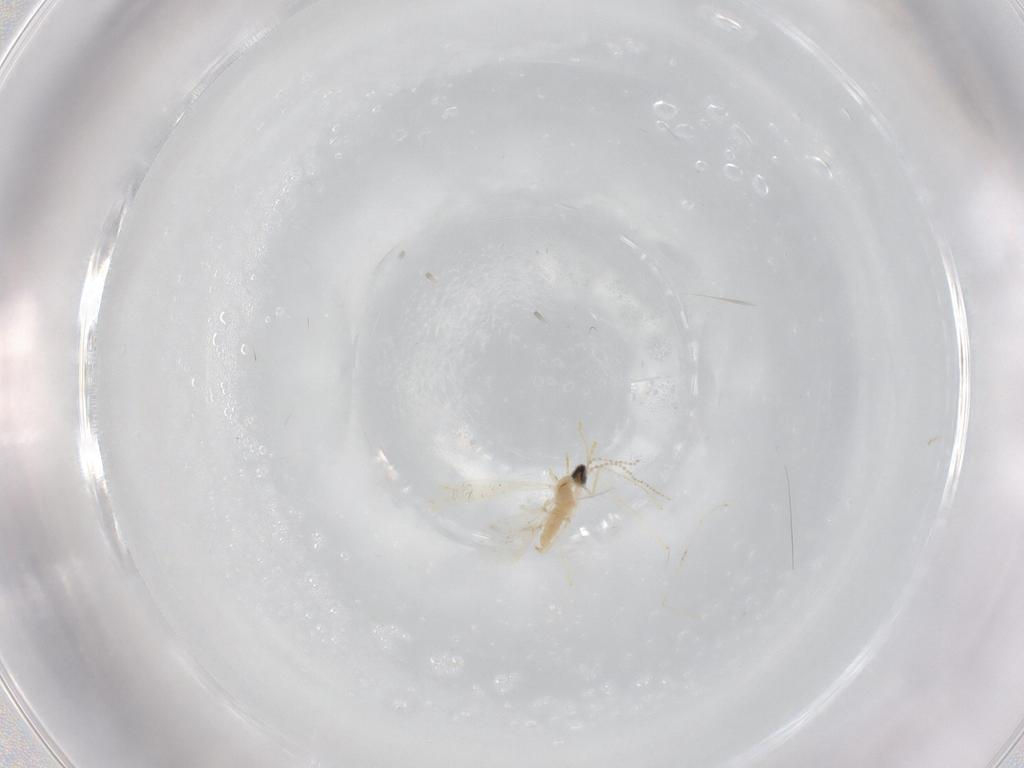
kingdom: Animalia
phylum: Arthropoda
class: Insecta
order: Diptera
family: Cecidomyiidae
